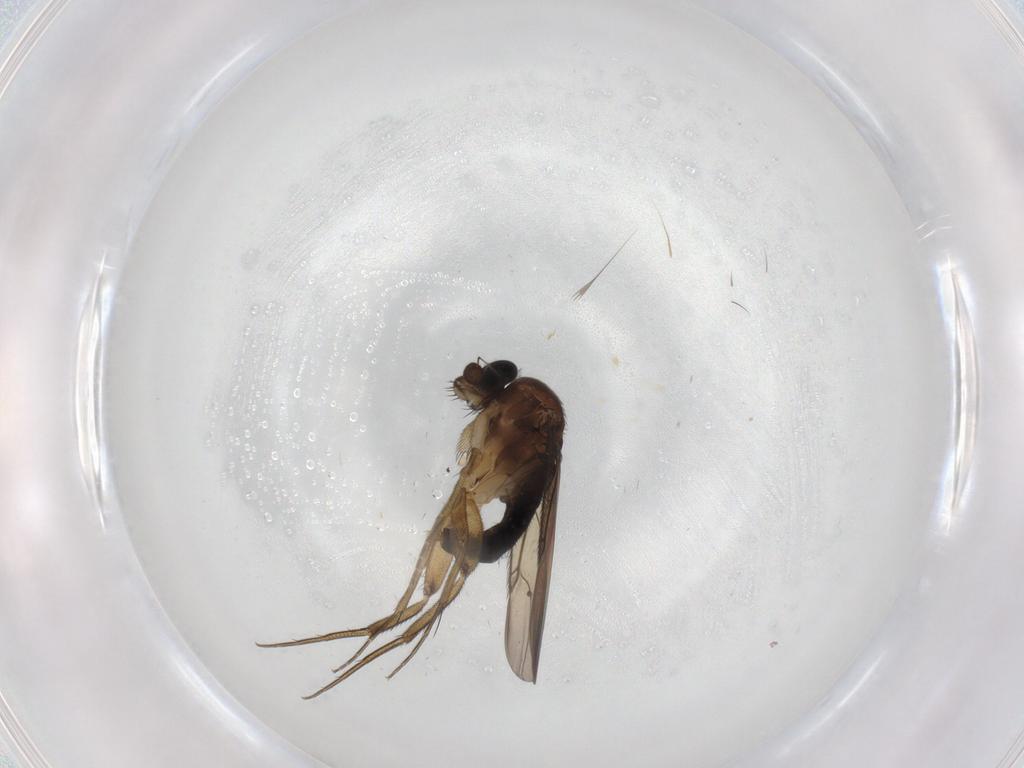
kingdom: Animalia
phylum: Arthropoda
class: Insecta
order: Diptera
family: Phoridae
